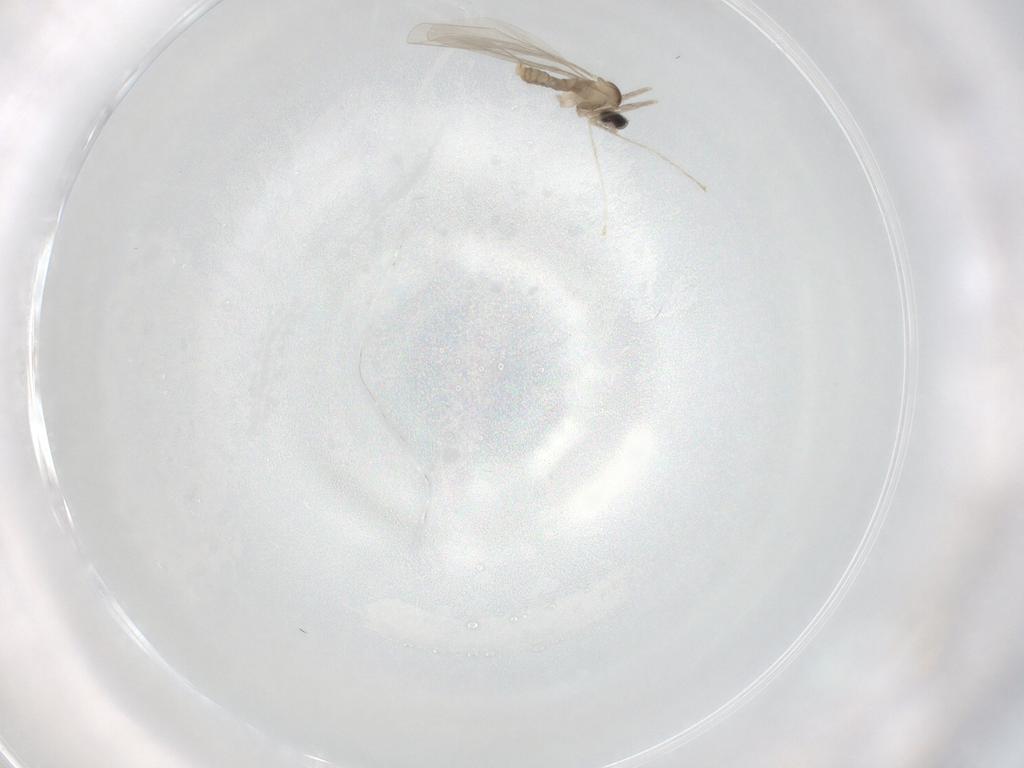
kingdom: Animalia
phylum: Arthropoda
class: Insecta
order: Diptera
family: Cecidomyiidae
